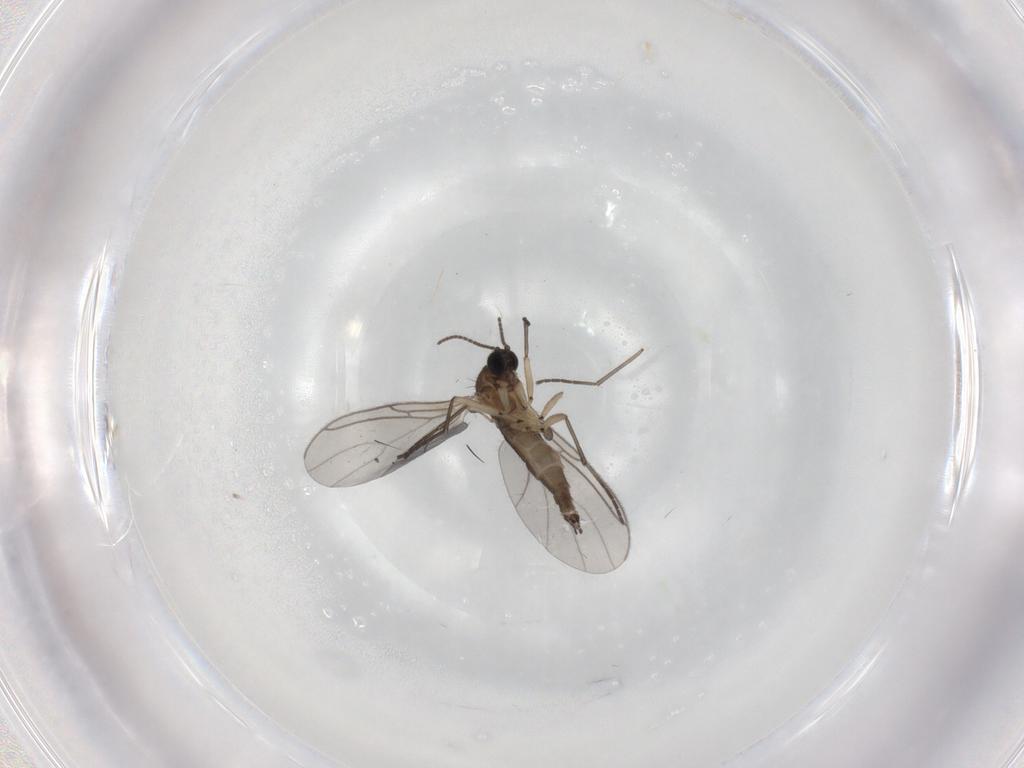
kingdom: Animalia
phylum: Arthropoda
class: Insecta
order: Diptera
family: Sciaridae
